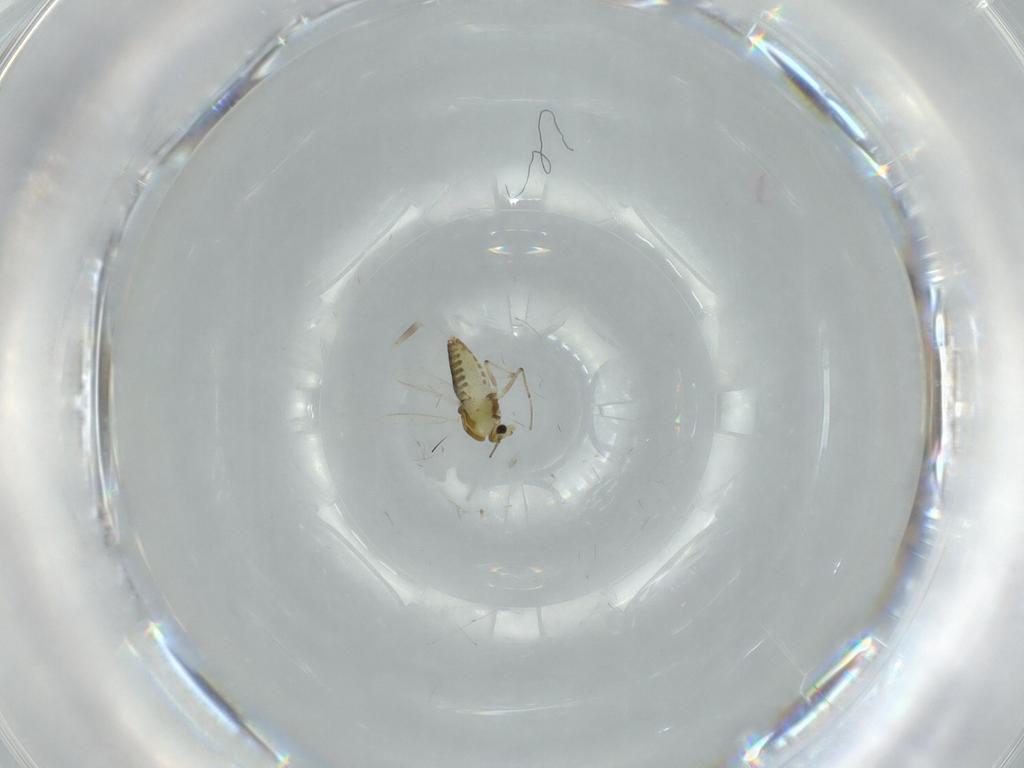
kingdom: Animalia
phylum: Arthropoda
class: Insecta
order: Diptera
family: Chironomidae
